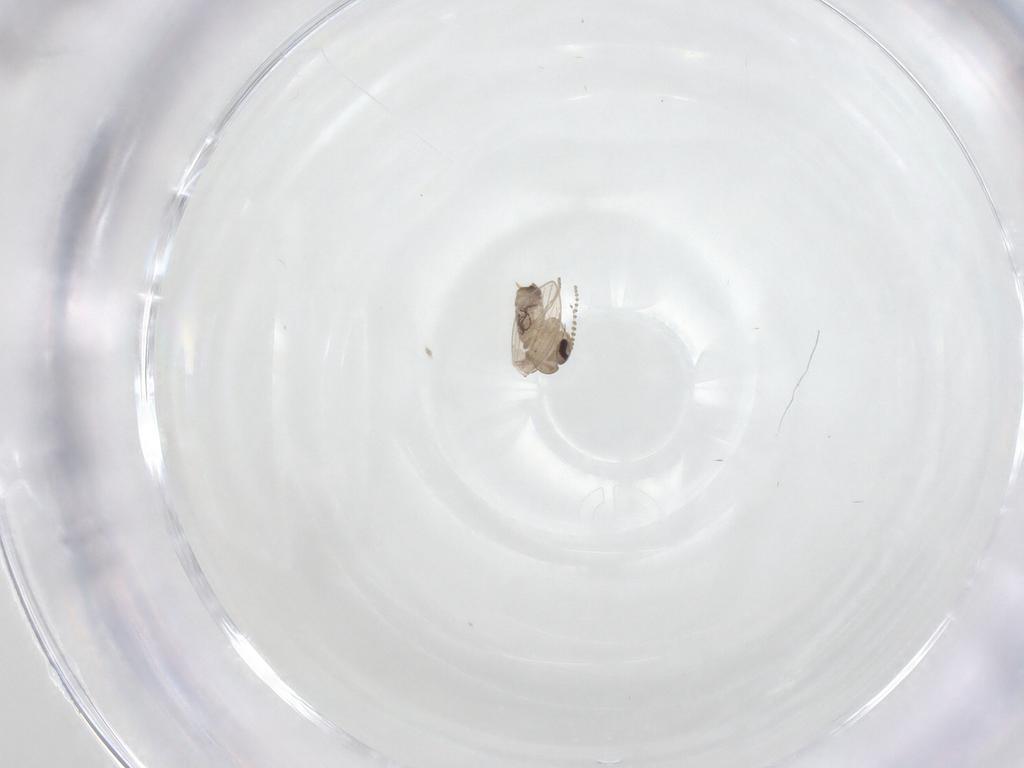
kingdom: Animalia
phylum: Arthropoda
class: Insecta
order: Diptera
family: Psychodidae
